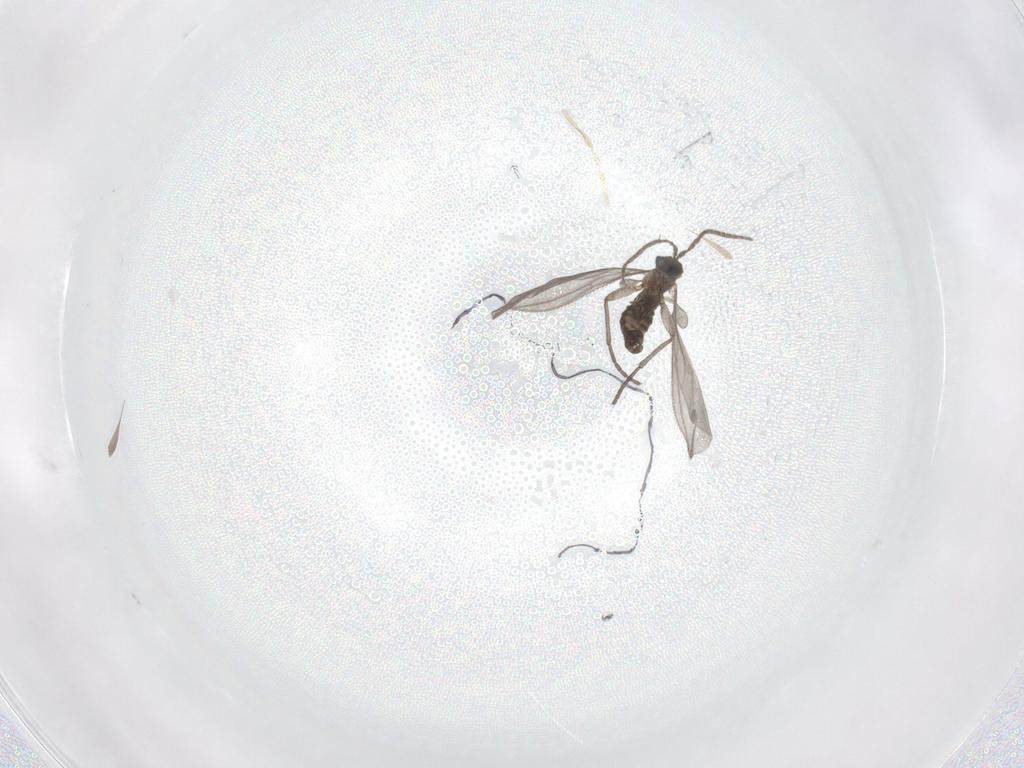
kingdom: Animalia
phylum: Arthropoda
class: Insecta
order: Diptera
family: Sciaridae
